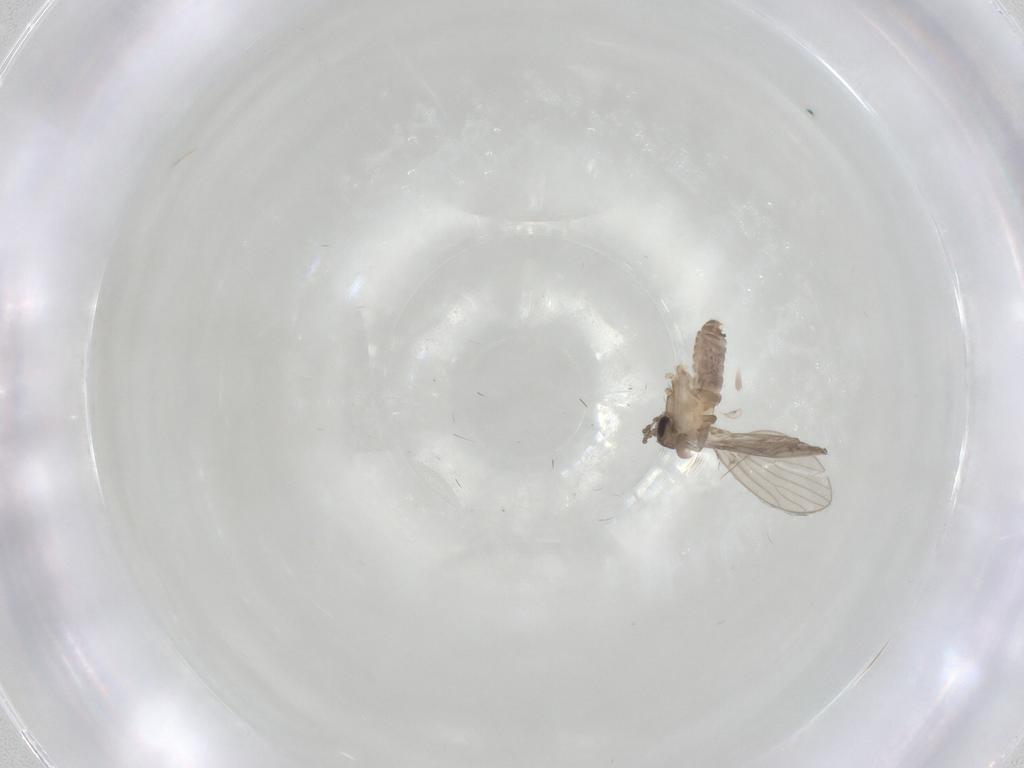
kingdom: Animalia
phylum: Arthropoda
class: Insecta
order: Diptera
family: Psychodidae
